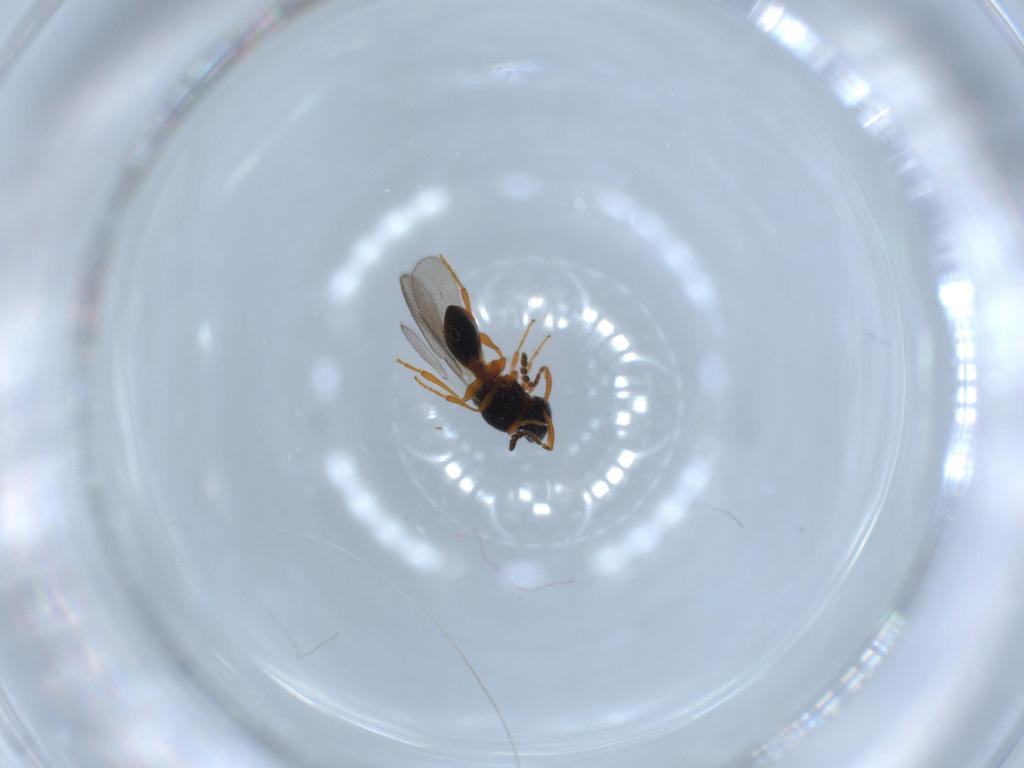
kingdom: Animalia
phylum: Arthropoda
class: Insecta
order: Hymenoptera
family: Platygastridae
